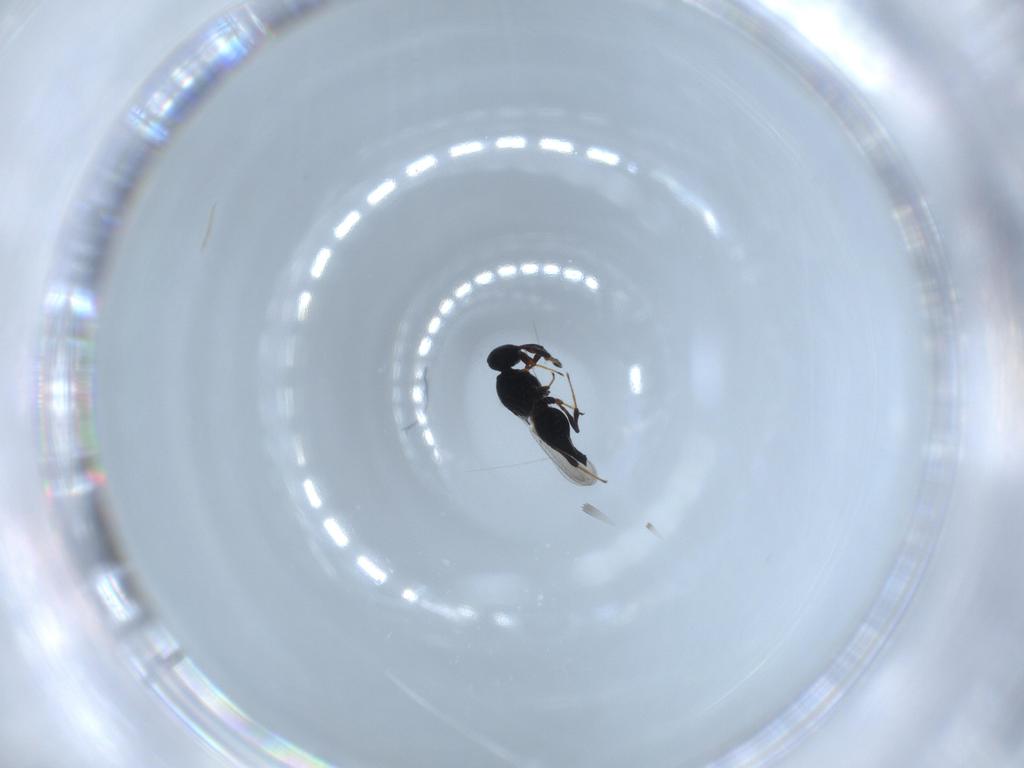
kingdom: Animalia
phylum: Arthropoda
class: Insecta
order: Hymenoptera
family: Platygastridae
